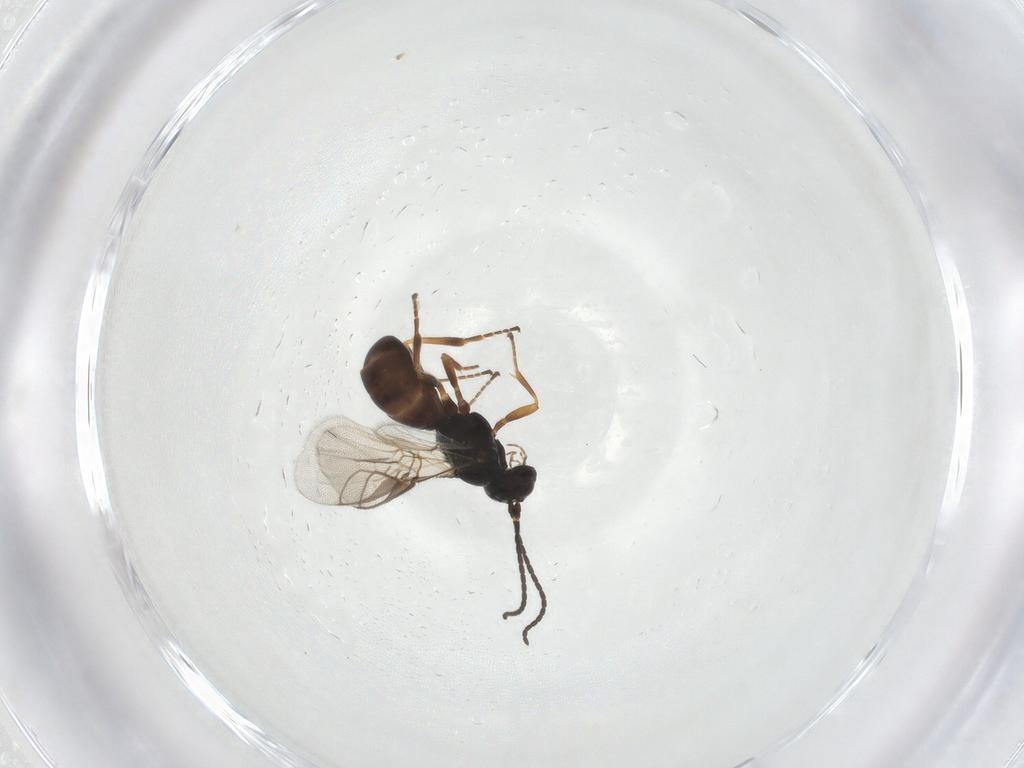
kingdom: Animalia
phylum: Arthropoda
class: Insecta
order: Hymenoptera
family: Braconidae
